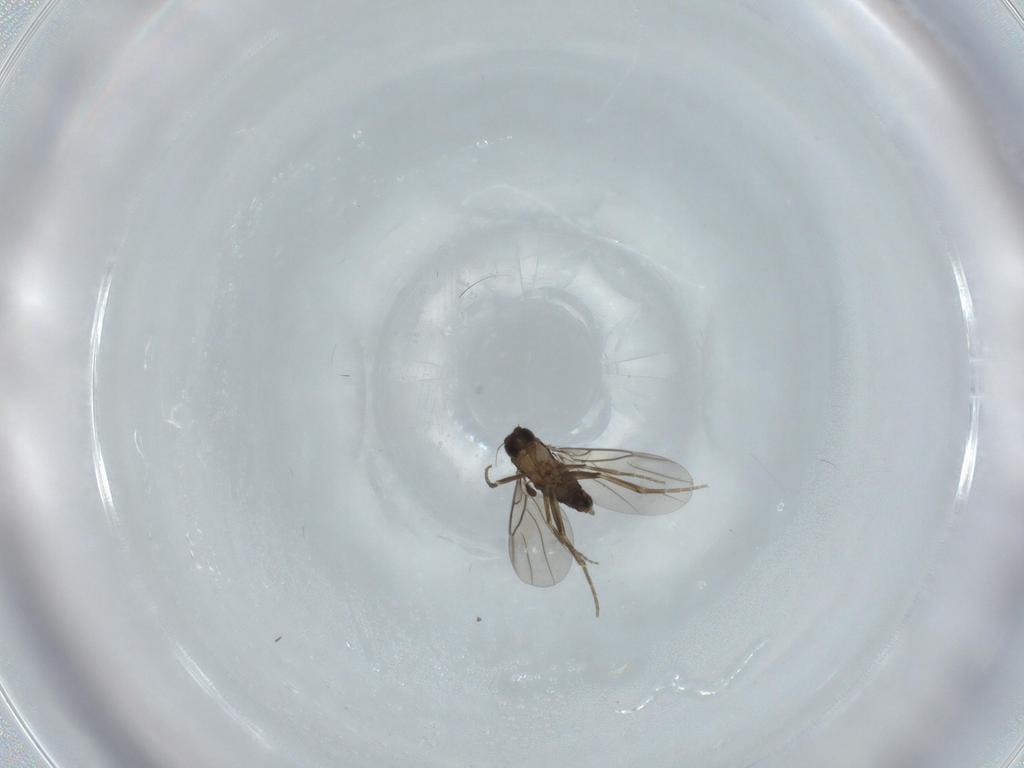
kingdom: Animalia
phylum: Arthropoda
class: Insecta
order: Diptera
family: Phoridae
